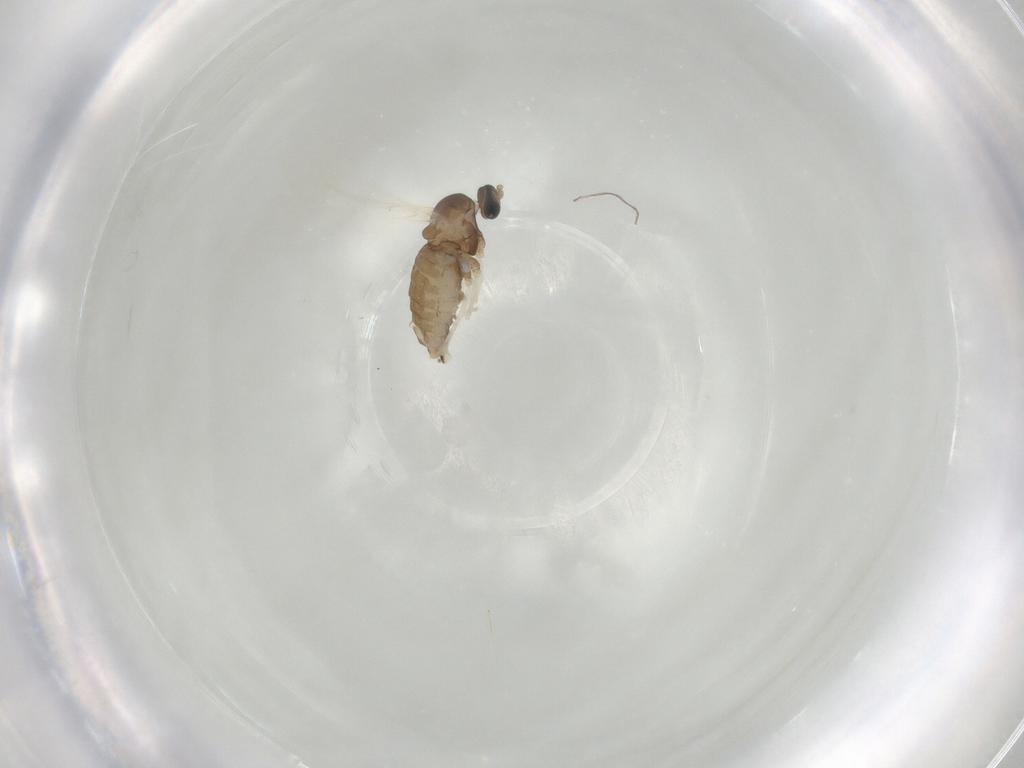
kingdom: Animalia
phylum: Arthropoda
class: Insecta
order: Diptera
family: Cecidomyiidae
